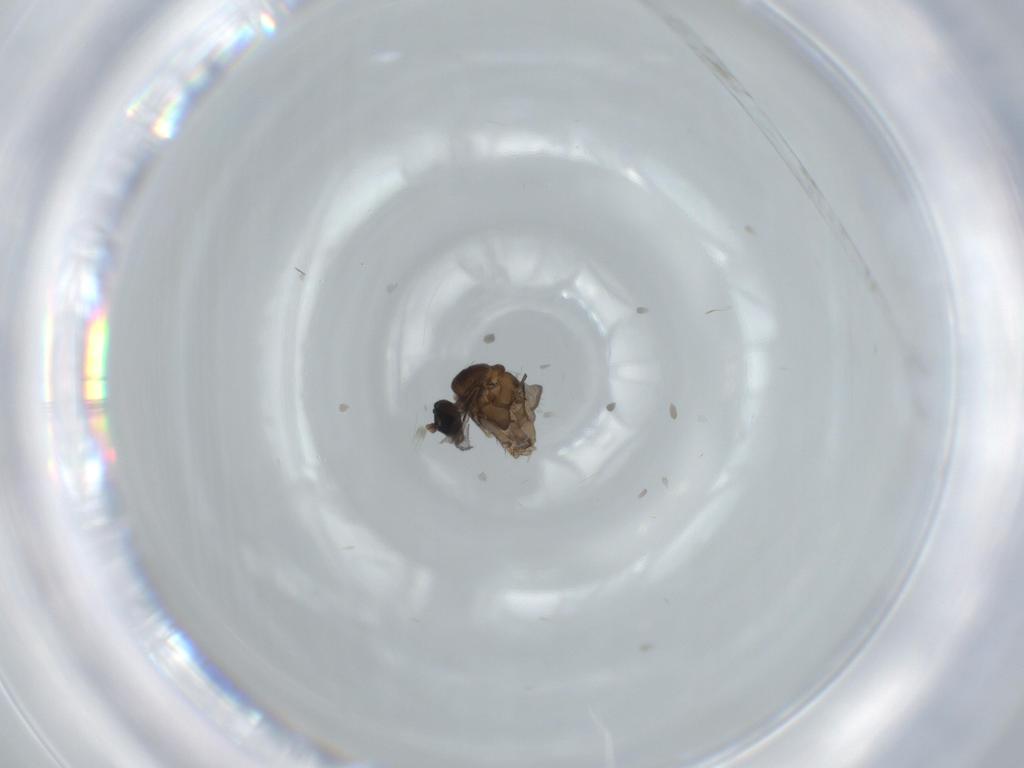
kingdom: Animalia
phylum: Arthropoda
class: Insecta
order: Diptera
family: Sciaridae
